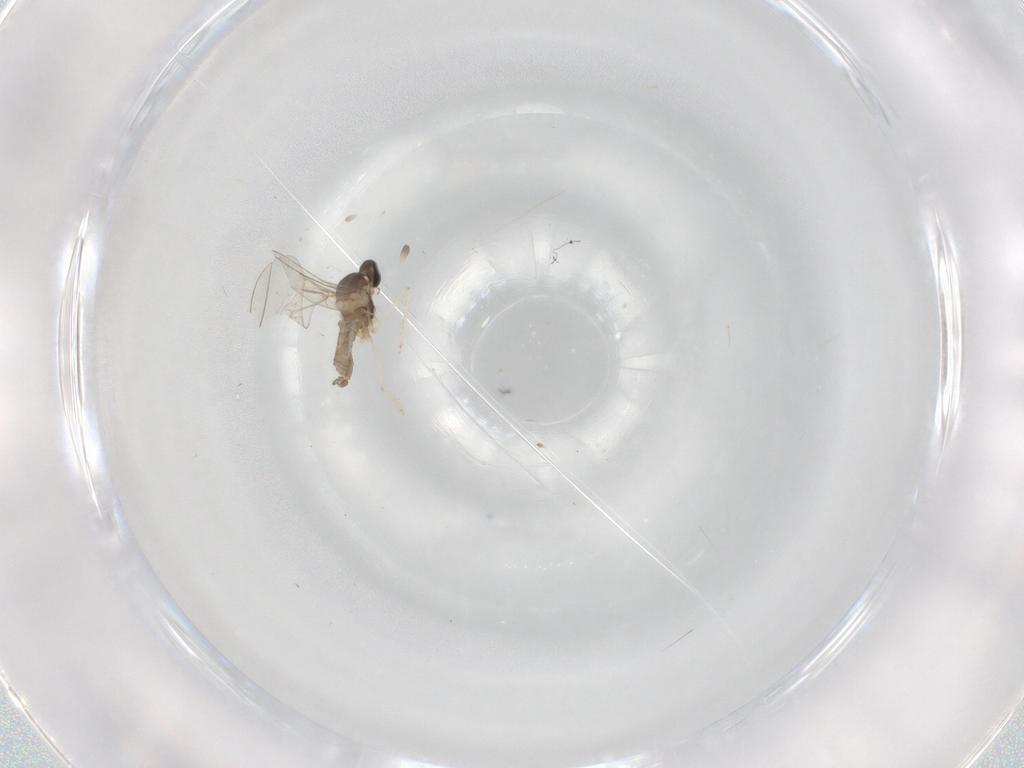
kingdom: Animalia
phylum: Arthropoda
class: Insecta
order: Diptera
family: Cecidomyiidae
